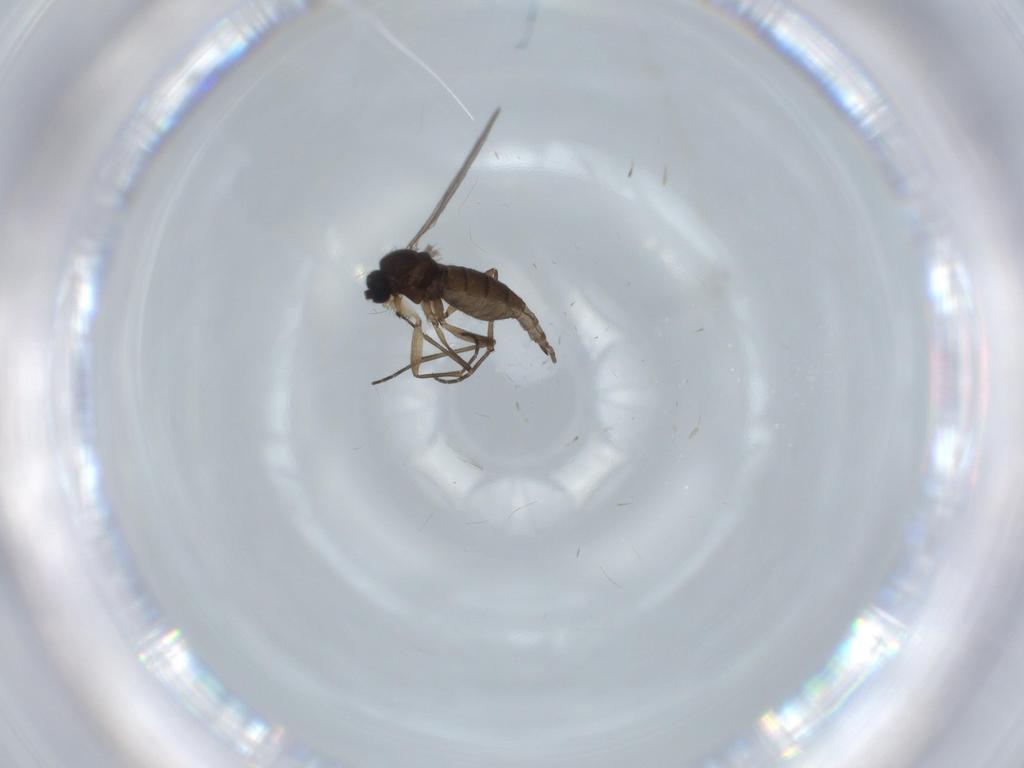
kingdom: Animalia
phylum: Arthropoda
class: Insecta
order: Diptera
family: Sciaridae
